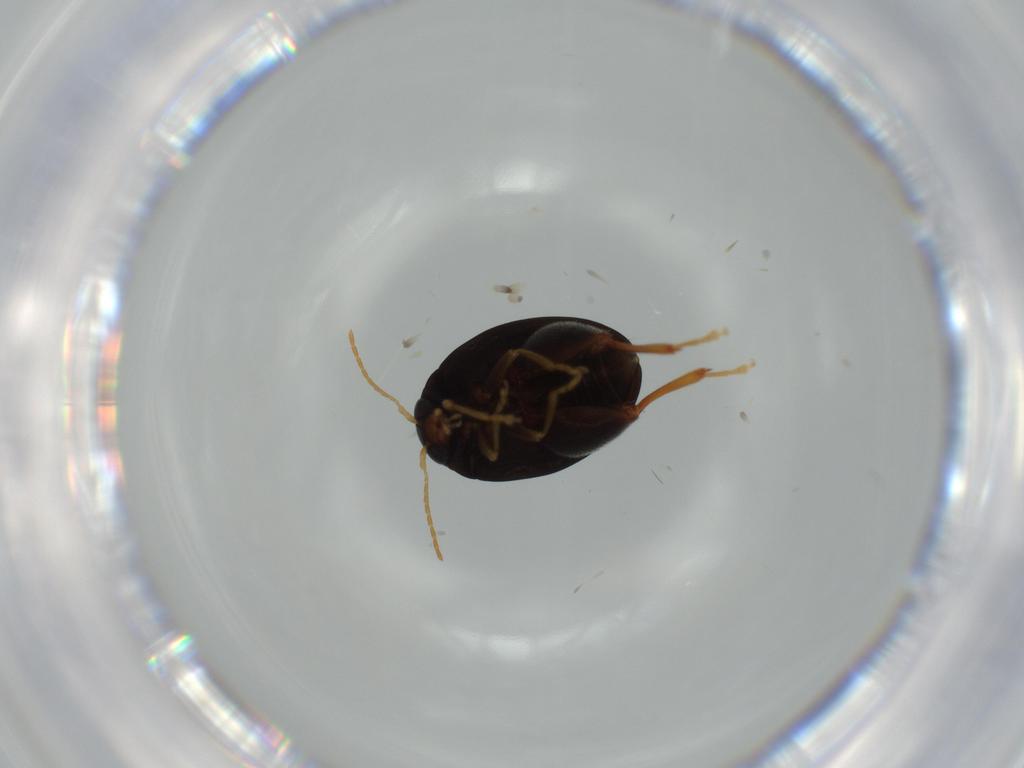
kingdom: Animalia
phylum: Arthropoda
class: Insecta
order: Coleoptera
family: Chrysomelidae
